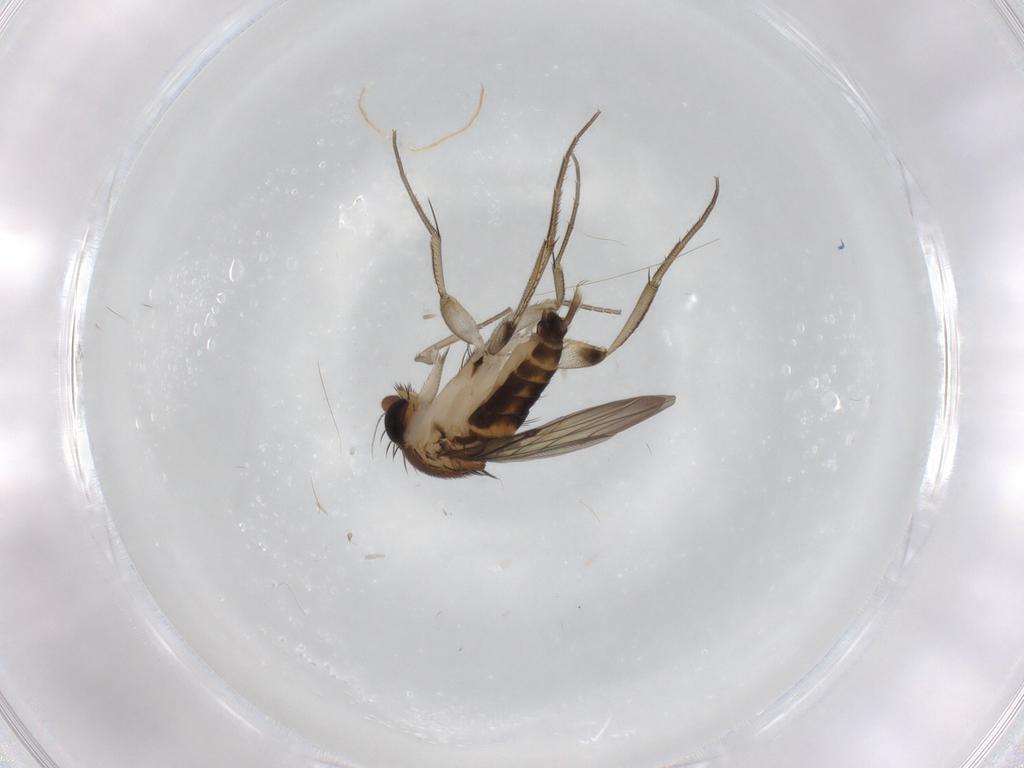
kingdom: Animalia
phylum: Arthropoda
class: Insecta
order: Diptera
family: Phoridae
